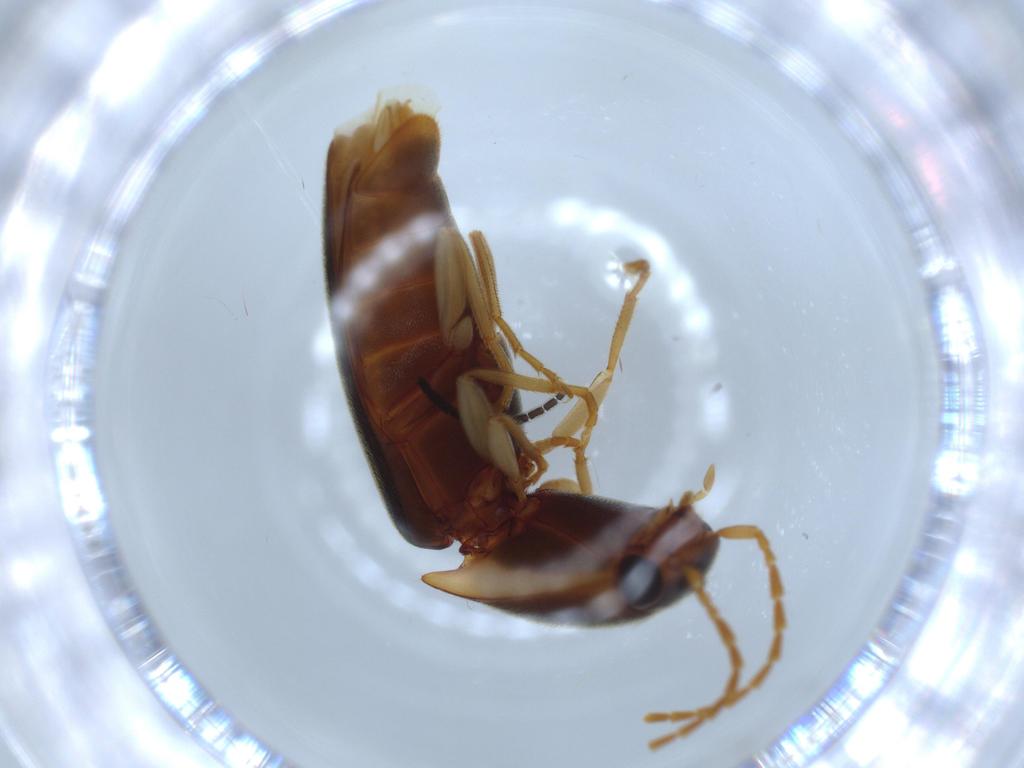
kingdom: Animalia
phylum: Arthropoda
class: Insecta
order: Coleoptera
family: Elateridae
